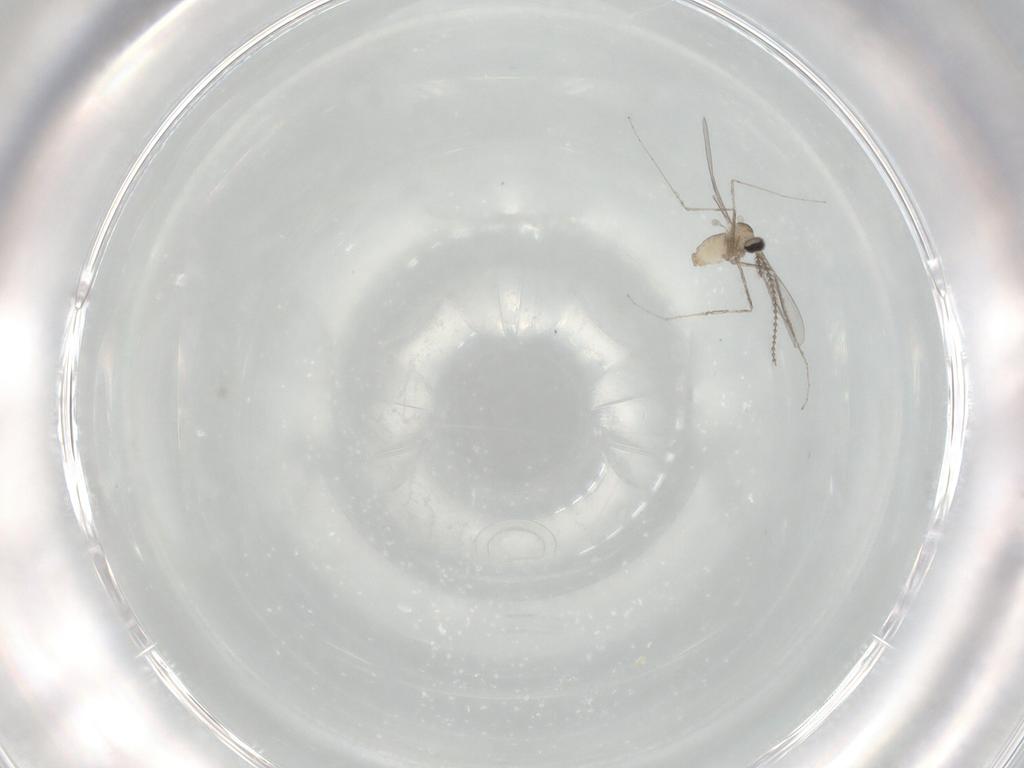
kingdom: Animalia
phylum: Arthropoda
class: Insecta
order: Diptera
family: Cecidomyiidae
